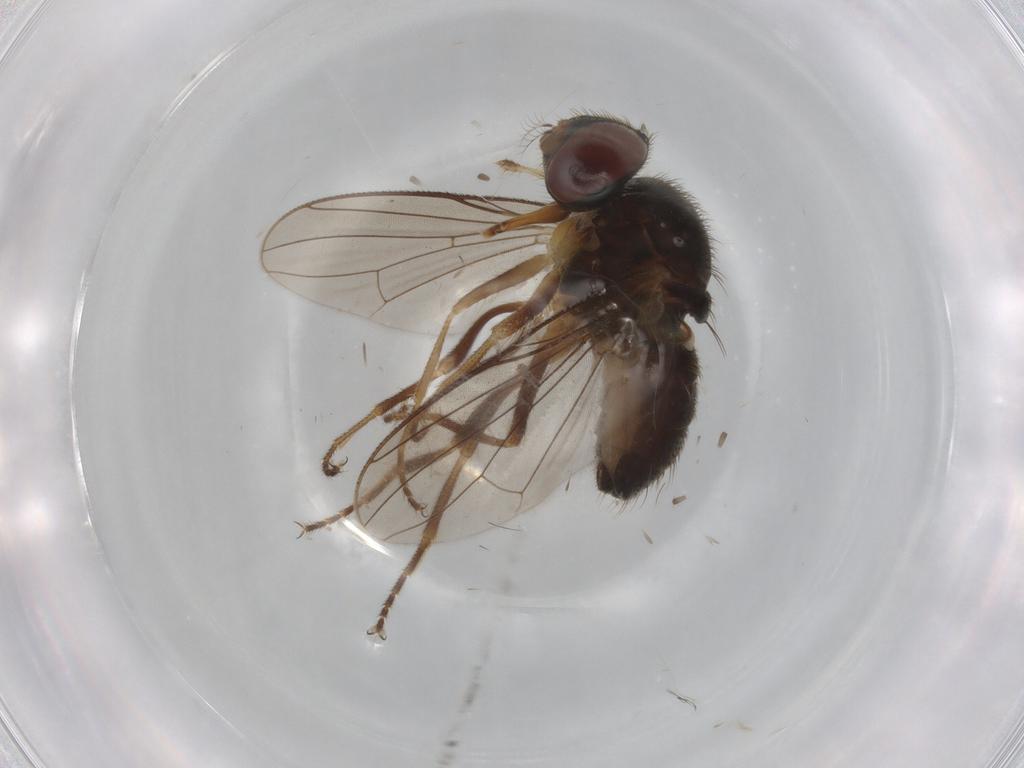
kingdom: Animalia
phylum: Arthropoda
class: Insecta
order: Diptera
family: Muscidae
